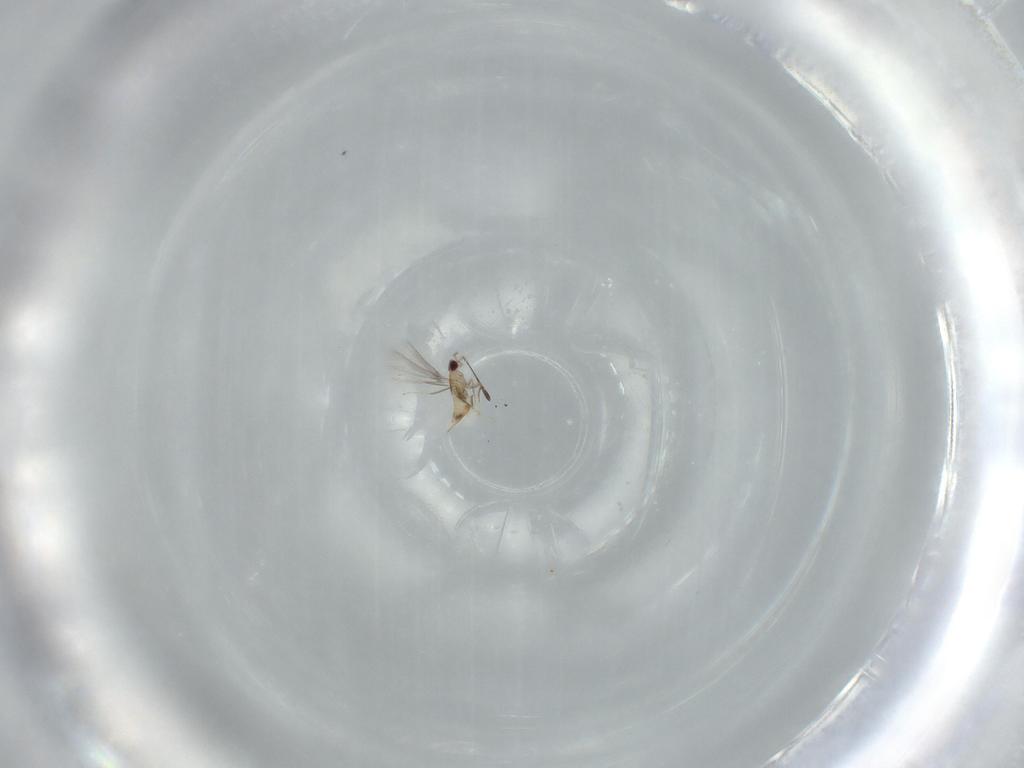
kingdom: Animalia
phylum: Arthropoda
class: Insecta
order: Hymenoptera
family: Mymaridae
